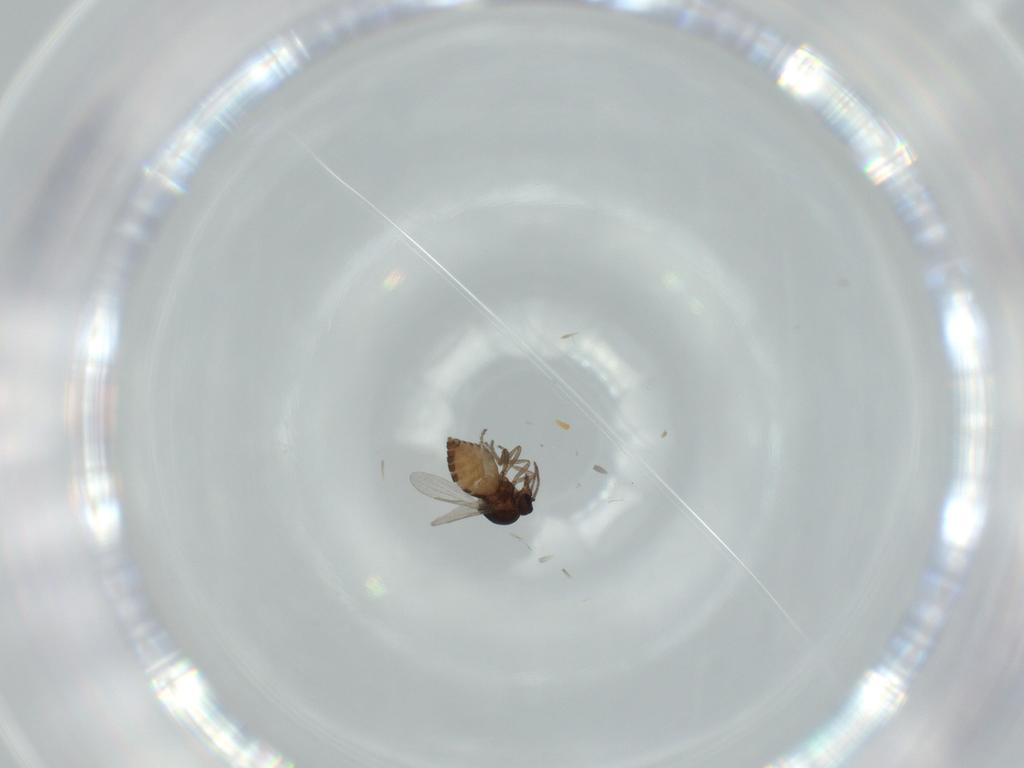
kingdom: Animalia
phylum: Arthropoda
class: Insecta
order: Diptera
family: Ceratopogonidae
